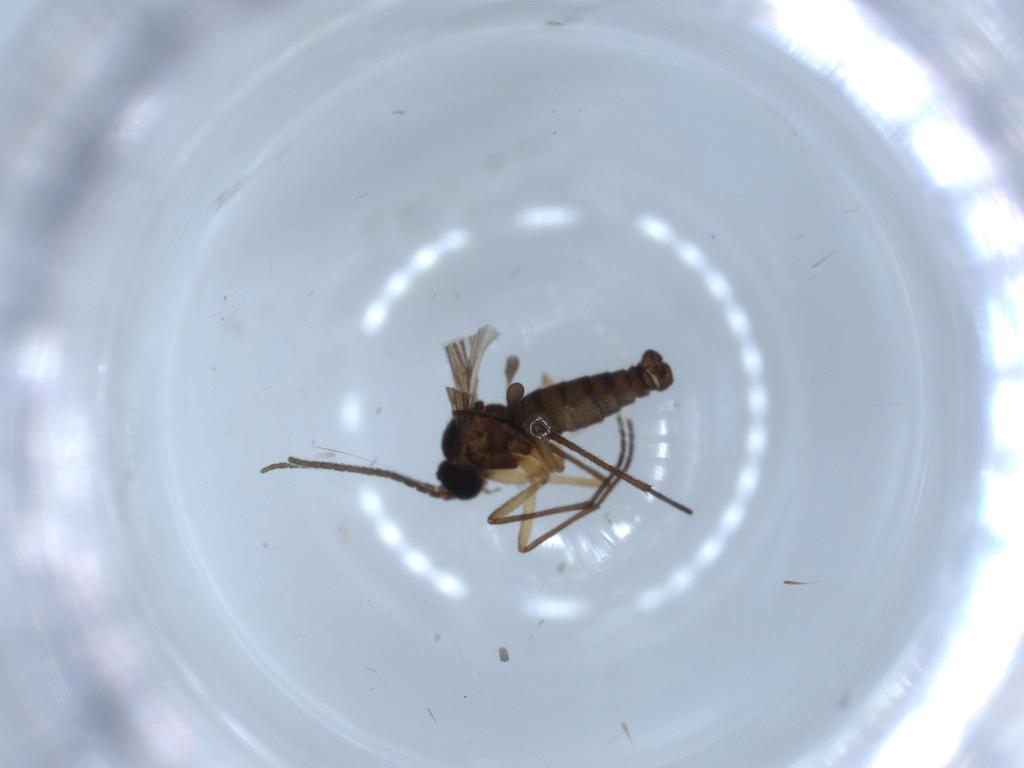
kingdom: Animalia
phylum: Arthropoda
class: Insecta
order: Diptera
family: Sciaridae
